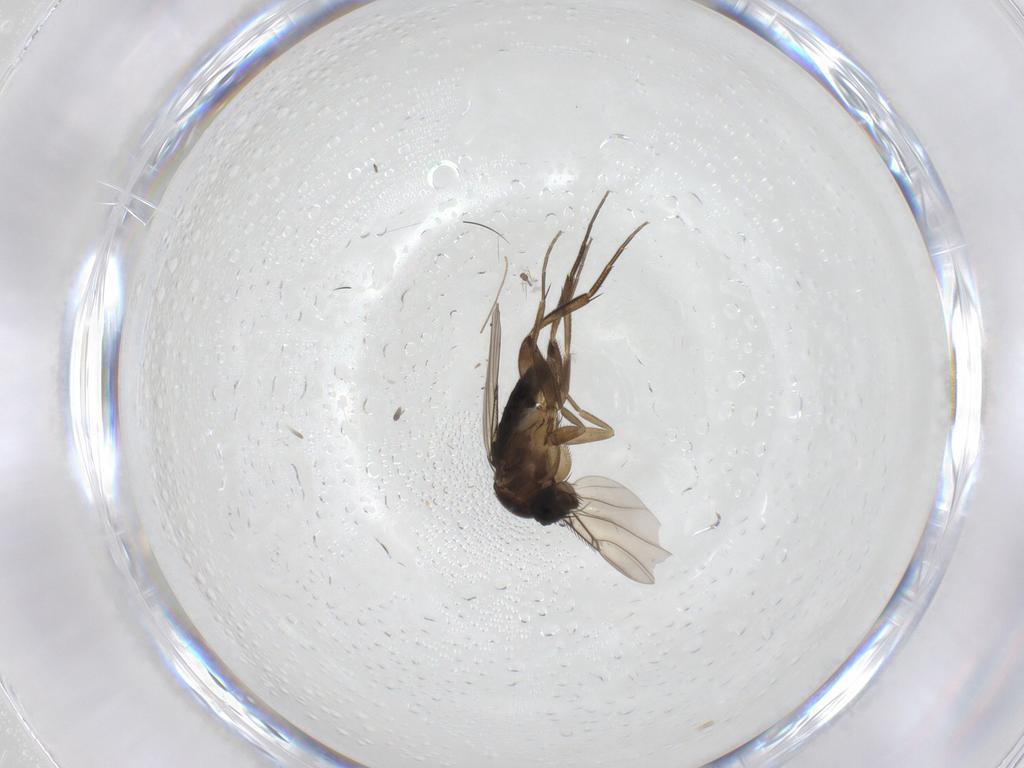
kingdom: Animalia
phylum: Arthropoda
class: Insecta
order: Diptera
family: Phoridae
